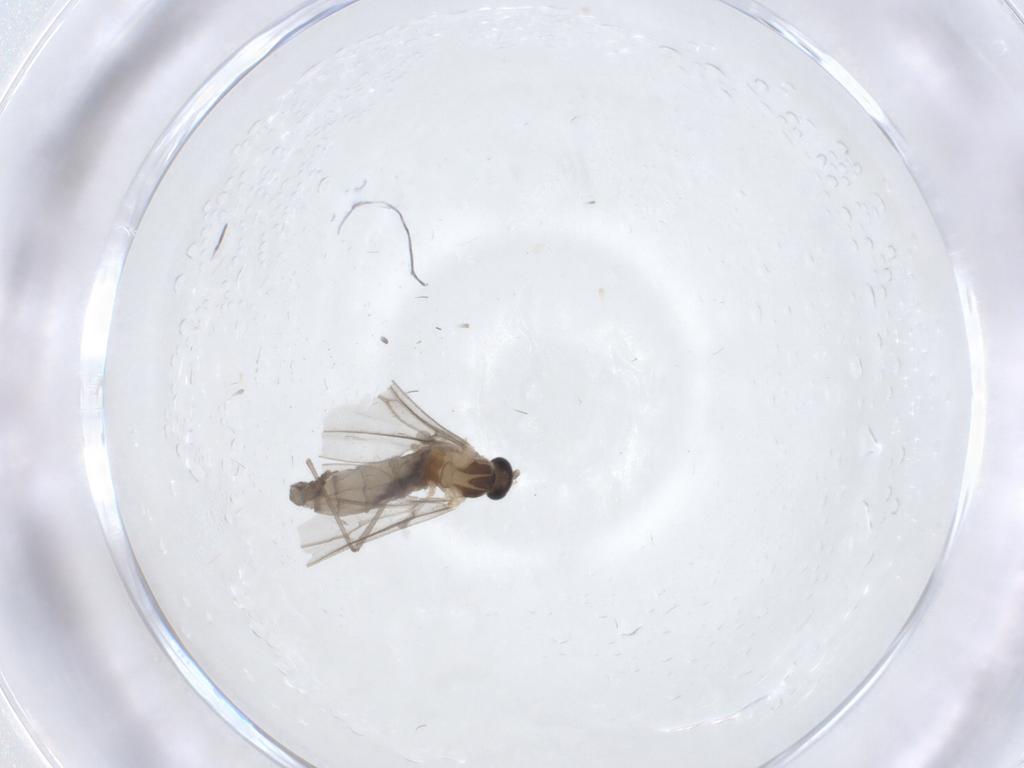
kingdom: Animalia
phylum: Arthropoda
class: Insecta
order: Diptera
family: Cecidomyiidae
